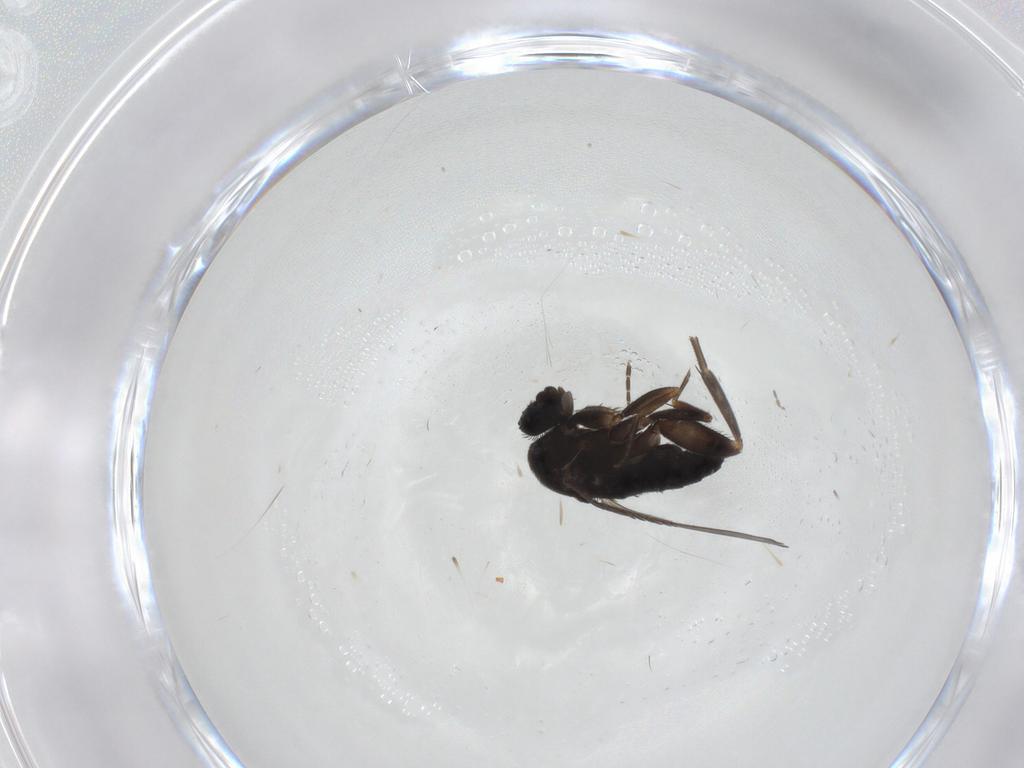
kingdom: Animalia
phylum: Arthropoda
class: Insecta
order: Diptera
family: Phoridae
